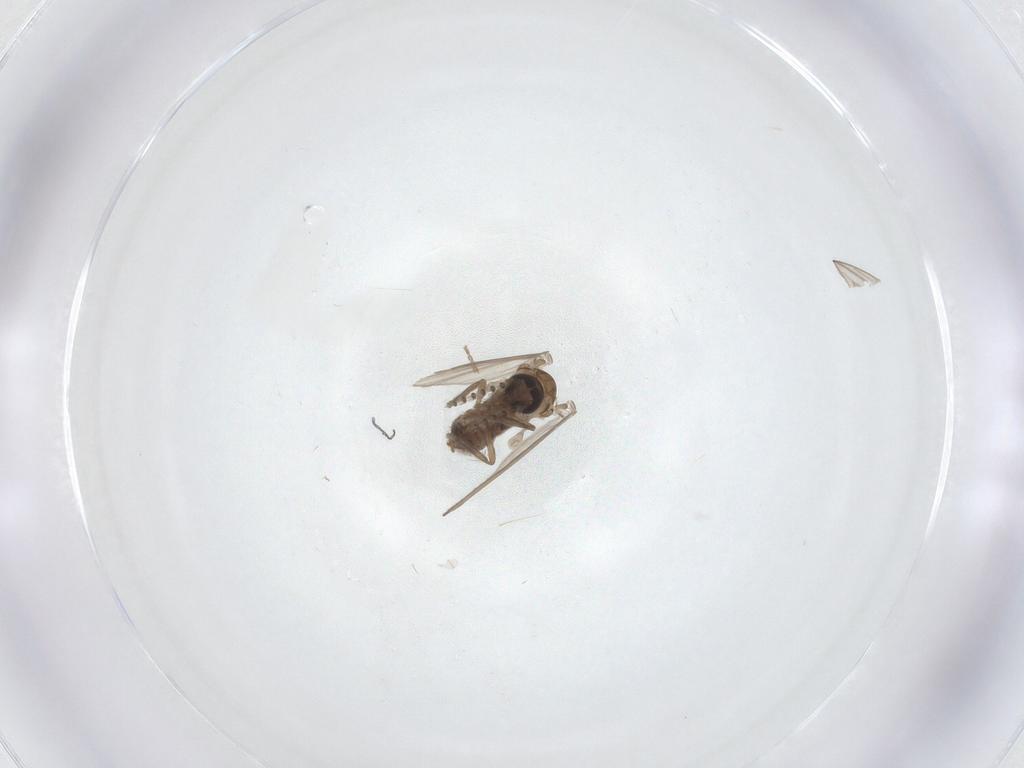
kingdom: Animalia
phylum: Arthropoda
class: Insecta
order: Diptera
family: Psychodidae
